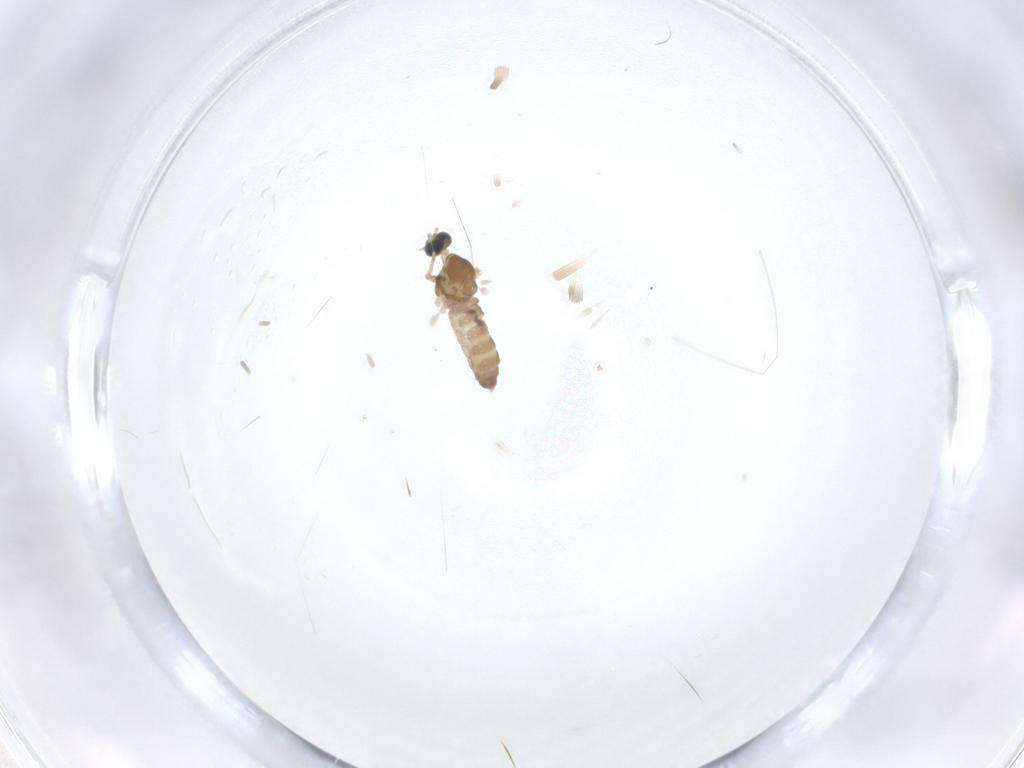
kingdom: Animalia
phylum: Arthropoda
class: Insecta
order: Diptera
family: Cecidomyiidae
